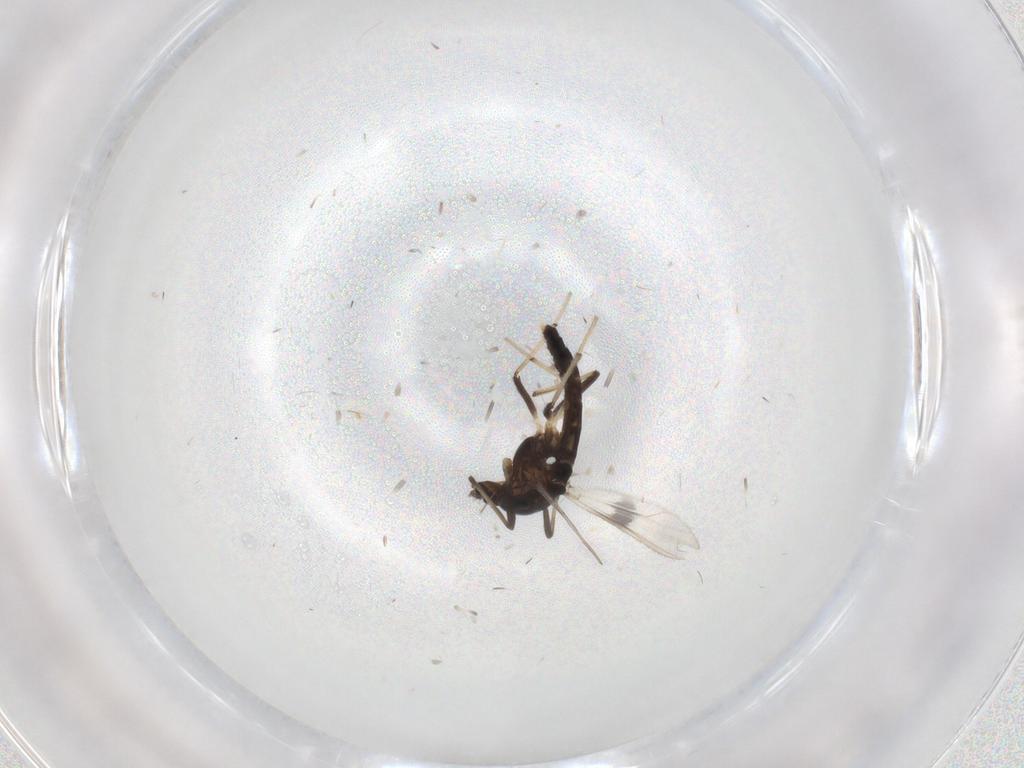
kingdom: Animalia
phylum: Arthropoda
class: Insecta
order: Diptera
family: Chironomidae
